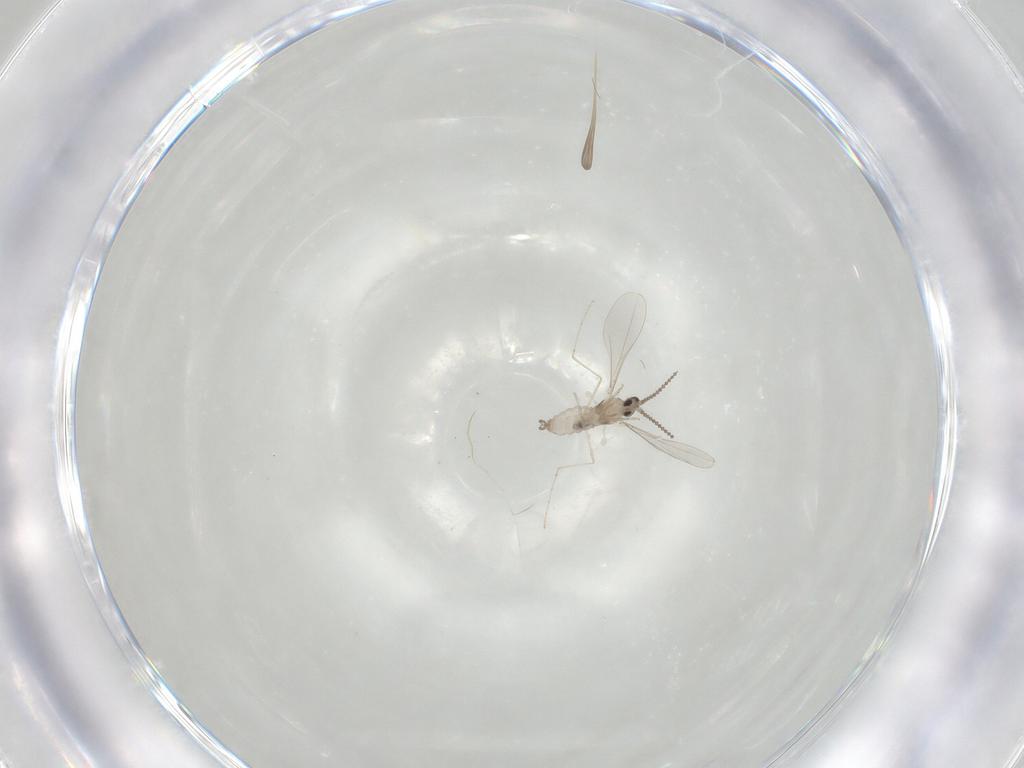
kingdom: Animalia
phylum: Arthropoda
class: Insecta
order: Diptera
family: Cecidomyiidae
